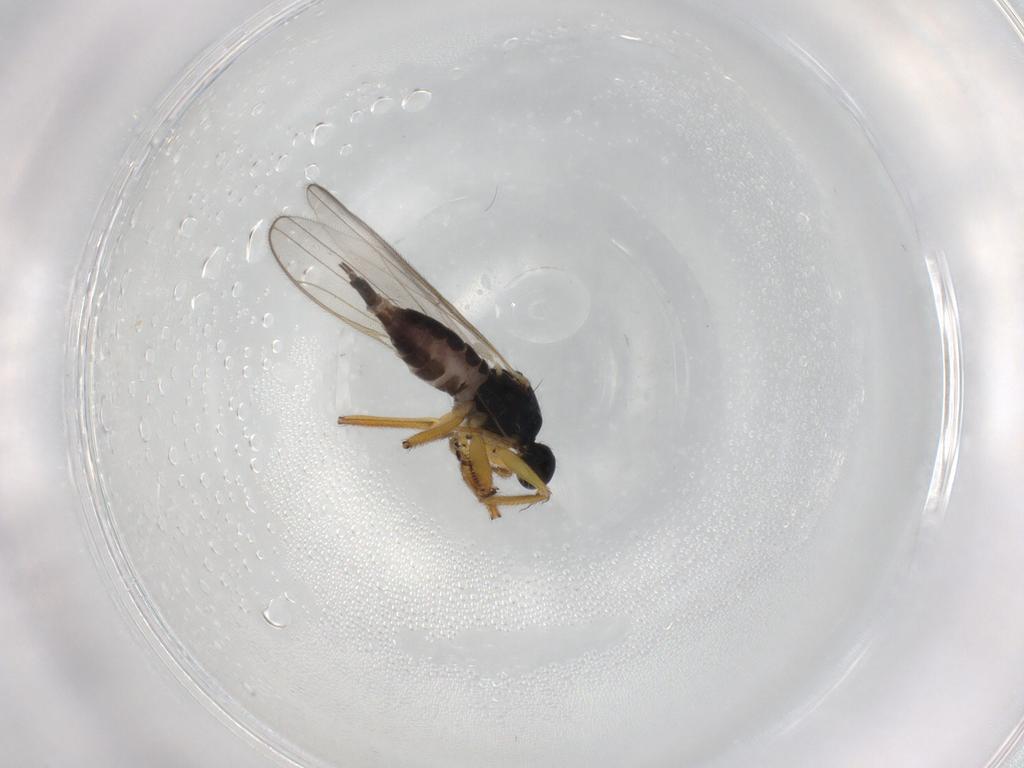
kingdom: Animalia
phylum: Arthropoda
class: Insecta
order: Diptera
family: Hybotidae
